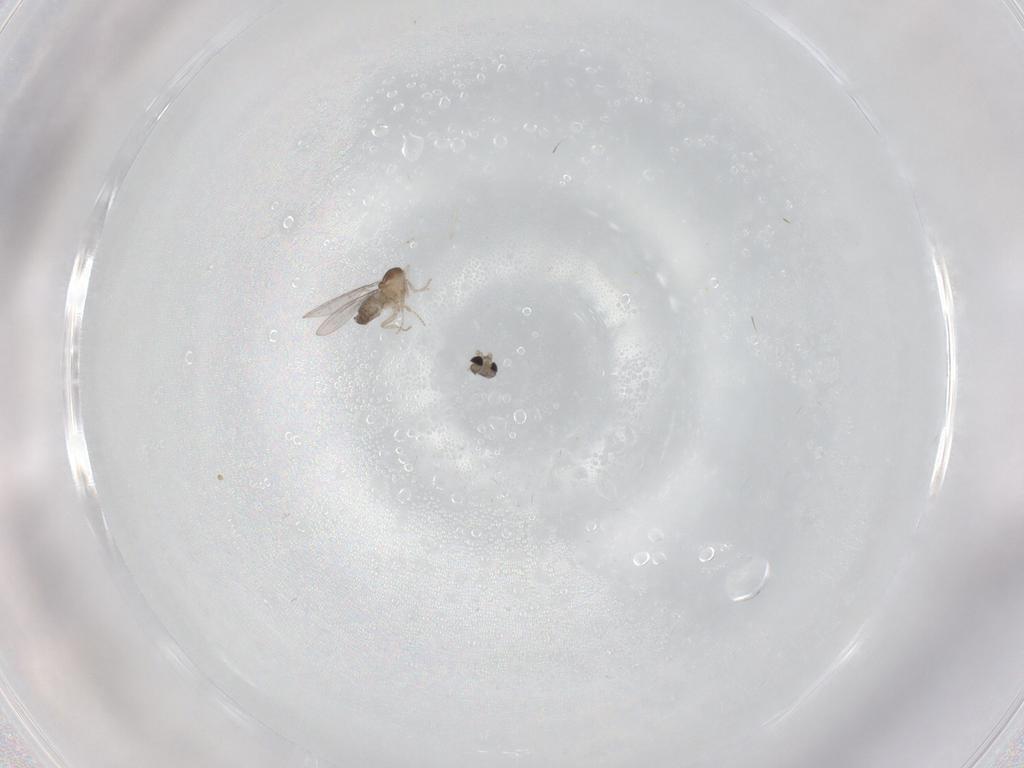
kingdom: Animalia
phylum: Arthropoda
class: Insecta
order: Diptera
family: Cecidomyiidae
